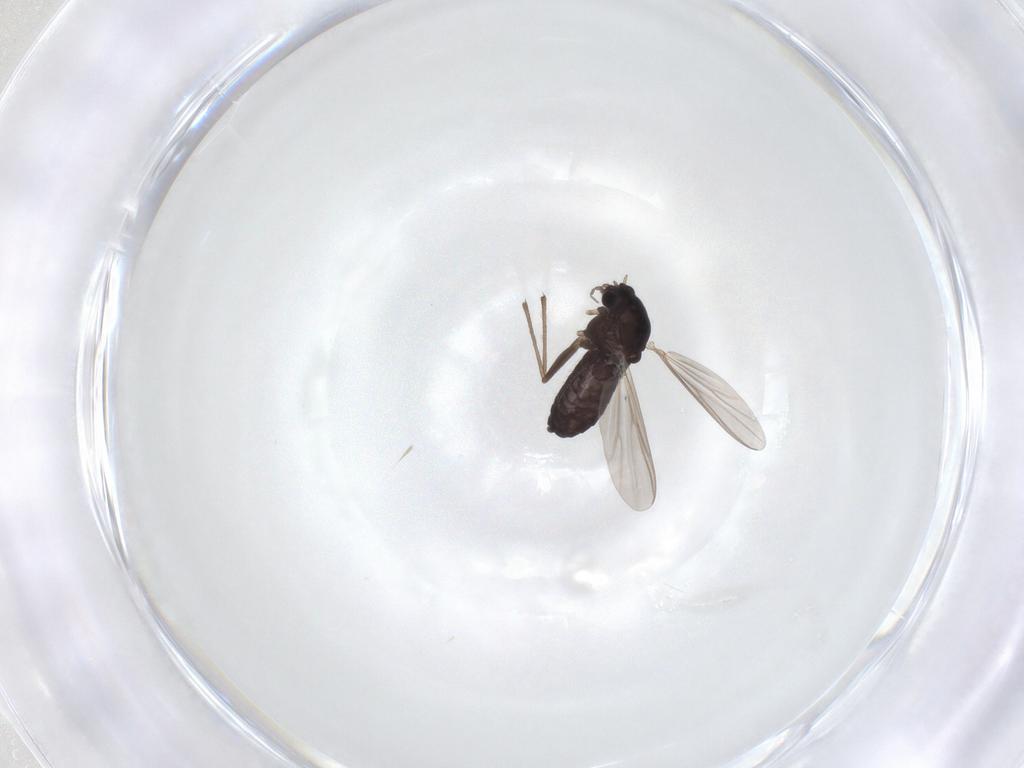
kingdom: Animalia
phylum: Arthropoda
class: Insecta
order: Diptera
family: Chironomidae
